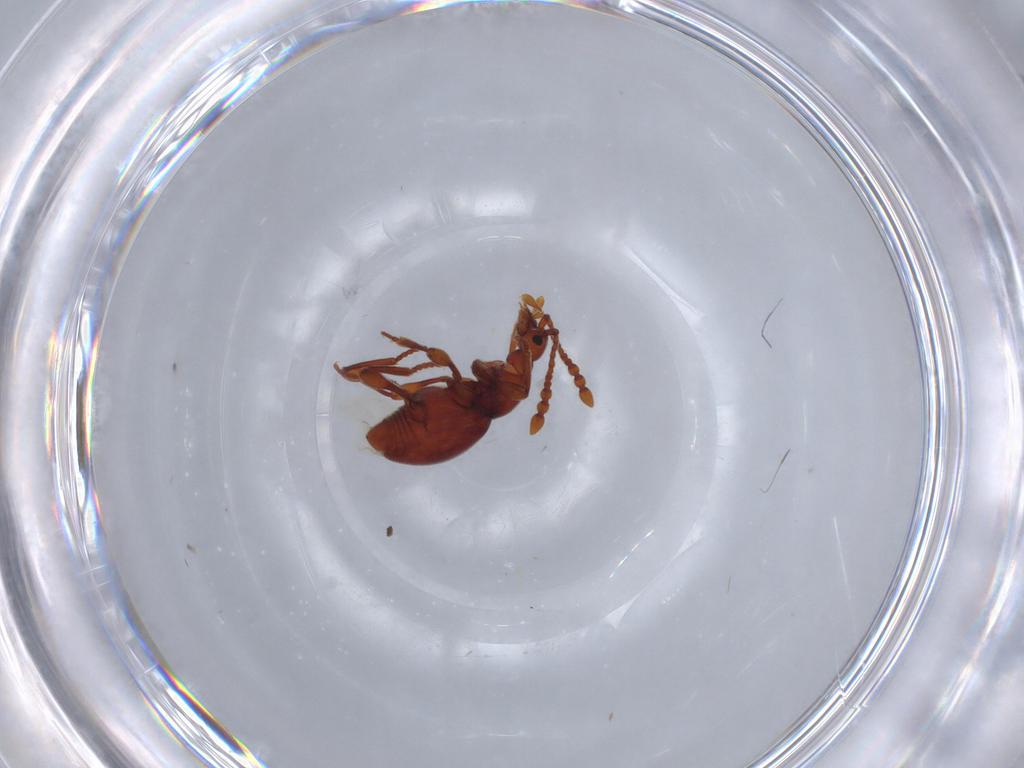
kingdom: Animalia
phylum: Arthropoda
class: Insecta
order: Coleoptera
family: Staphylinidae
